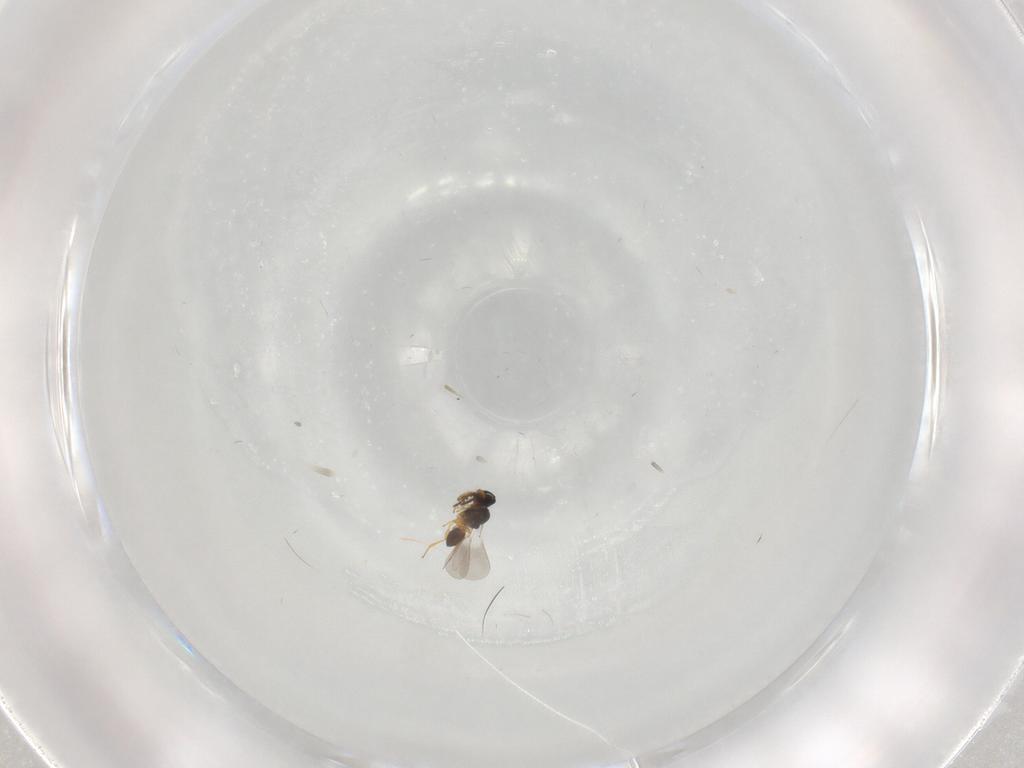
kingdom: Animalia
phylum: Arthropoda
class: Insecta
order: Hymenoptera
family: Platygastridae
